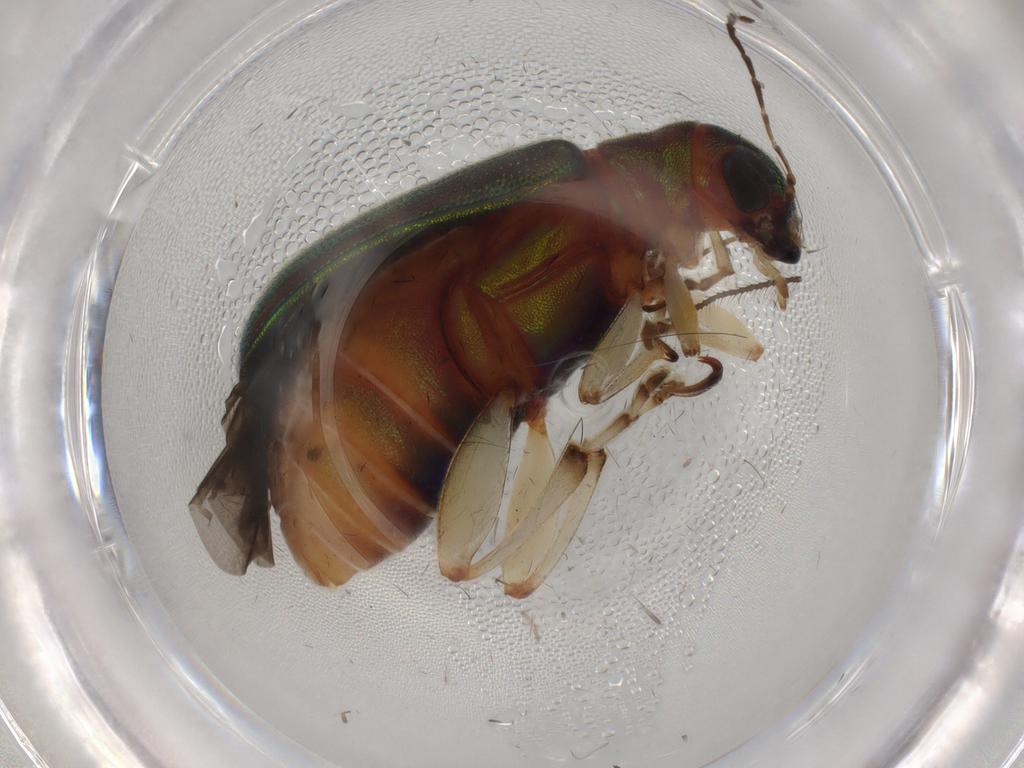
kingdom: Animalia
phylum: Arthropoda
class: Insecta
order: Coleoptera
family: Chrysomelidae
